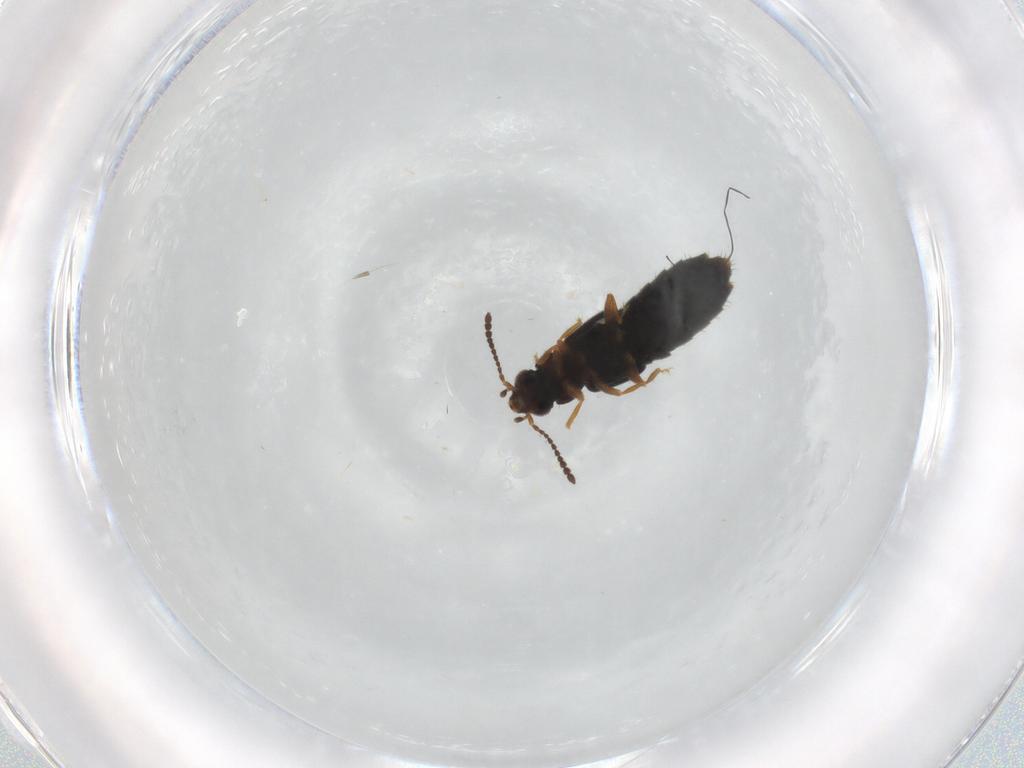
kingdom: Animalia
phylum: Arthropoda
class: Insecta
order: Coleoptera
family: Staphylinidae
